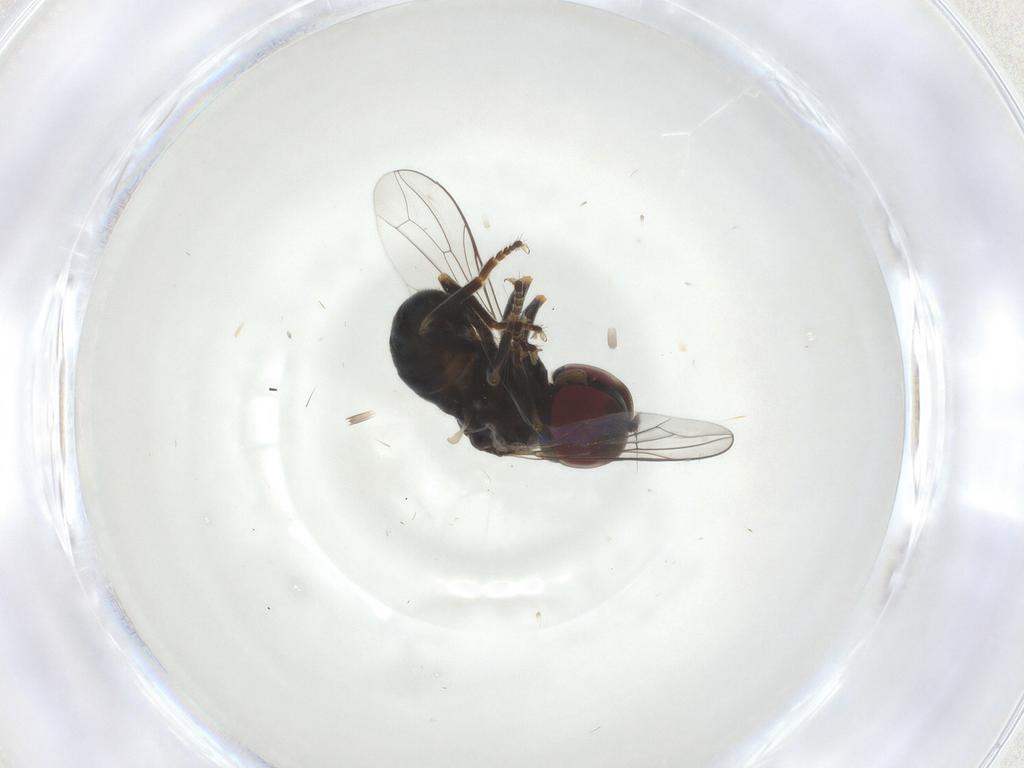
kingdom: Animalia
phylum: Arthropoda
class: Insecta
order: Diptera
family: Pipunculidae
